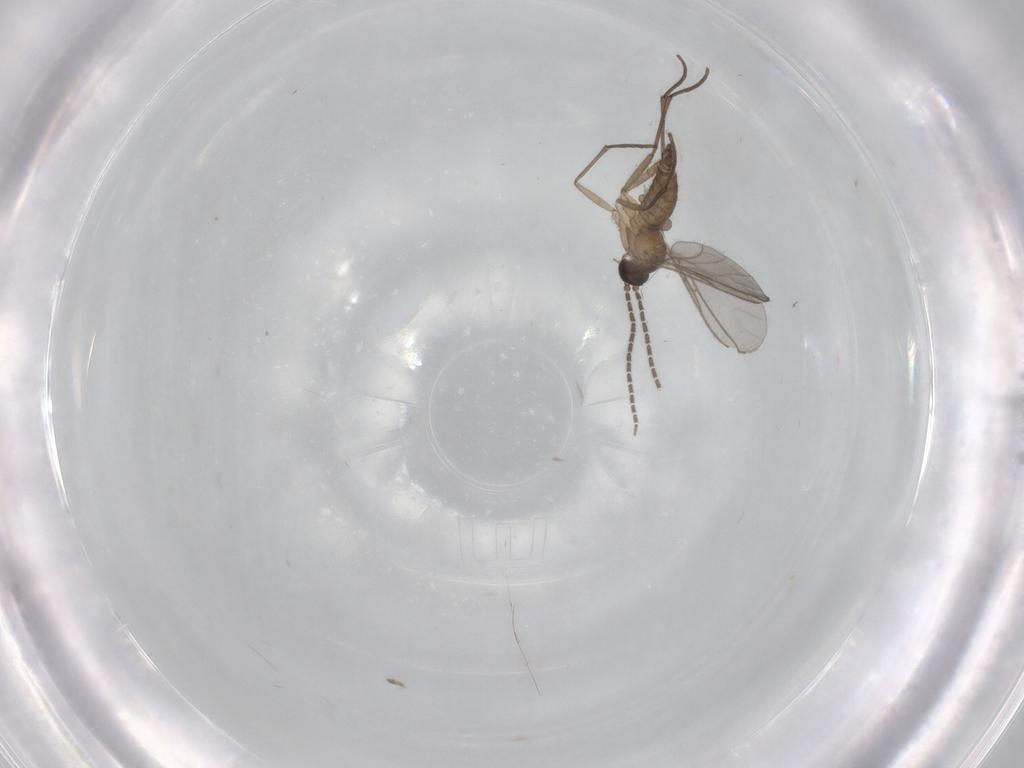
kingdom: Animalia
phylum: Arthropoda
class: Insecta
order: Diptera
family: Sciaridae
